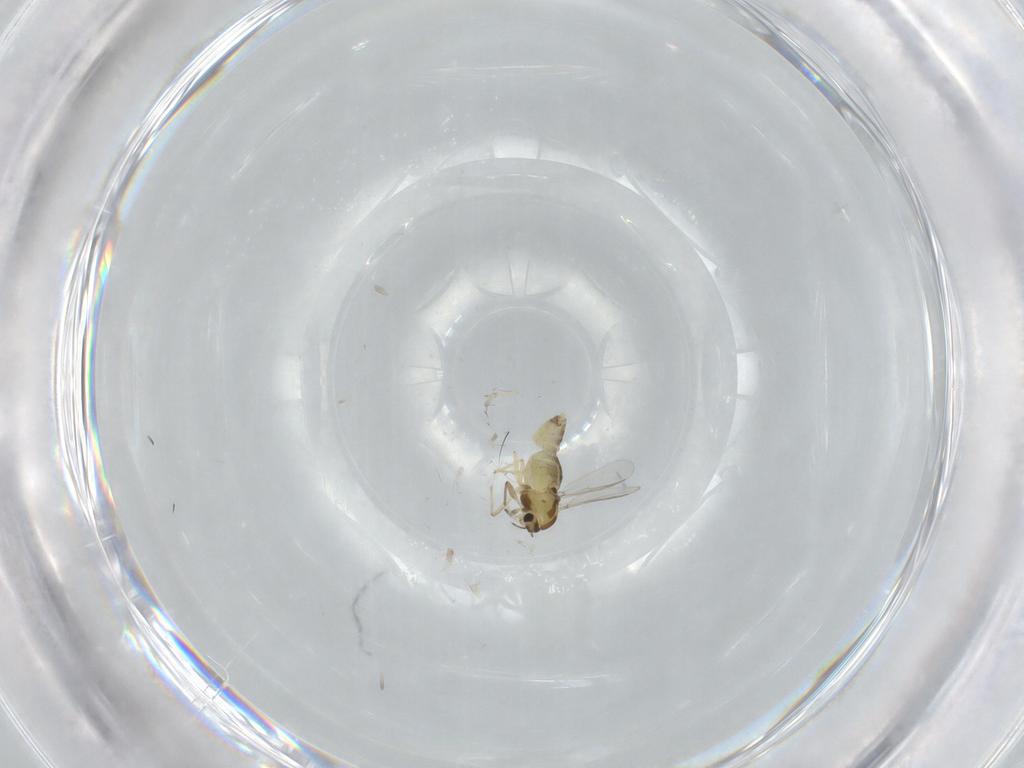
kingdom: Animalia
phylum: Arthropoda
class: Insecta
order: Diptera
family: Chironomidae
